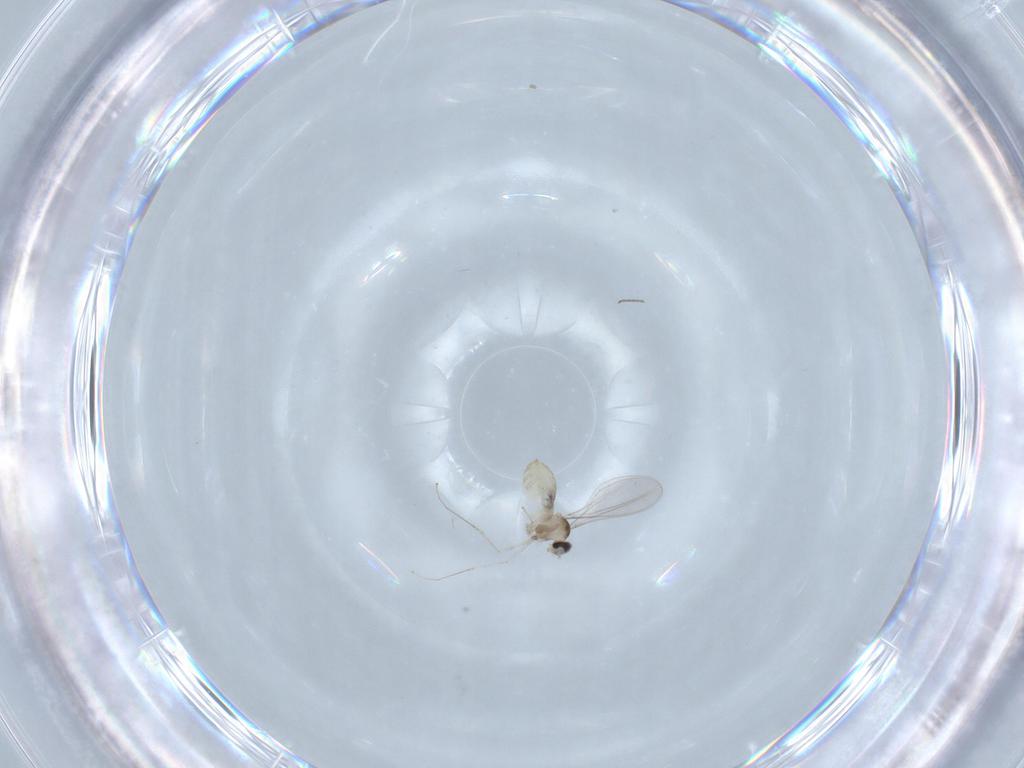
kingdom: Animalia
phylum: Arthropoda
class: Insecta
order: Diptera
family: Cecidomyiidae
